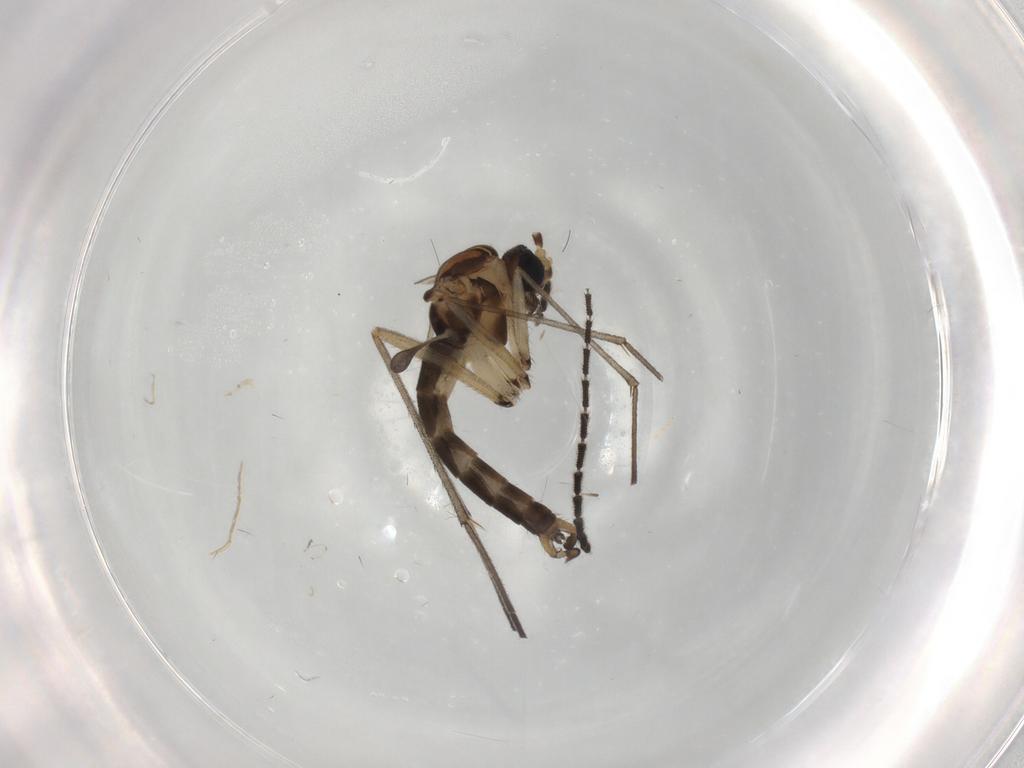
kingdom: Animalia
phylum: Arthropoda
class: Insecta
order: Diptera
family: Sciaridae
